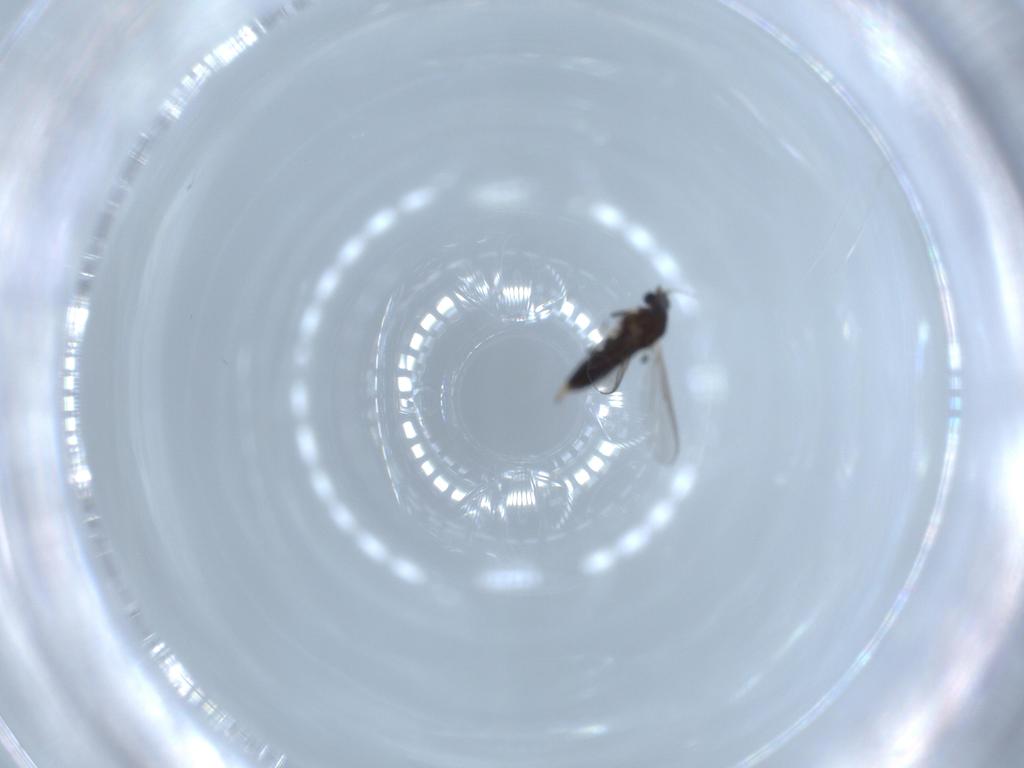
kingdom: Animalia
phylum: Arthropoda
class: Insecta
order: Diptera
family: Chironomidae
